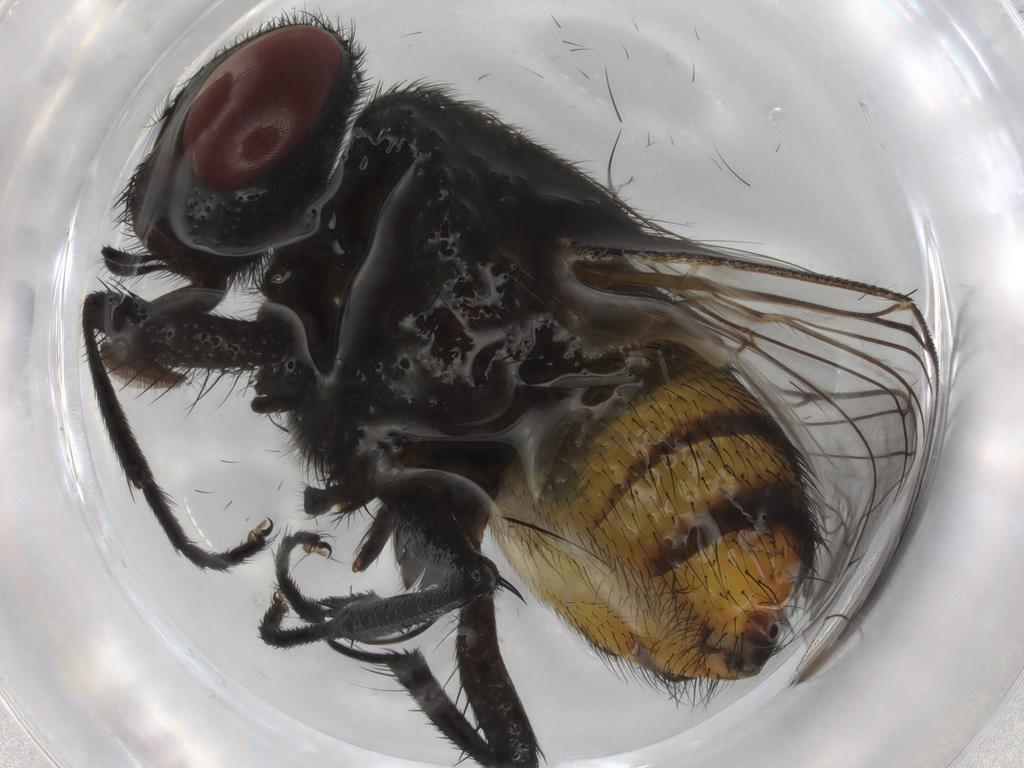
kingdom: Animalia
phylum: Arthropoda
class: Insecta
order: Diptera
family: Muscidae
